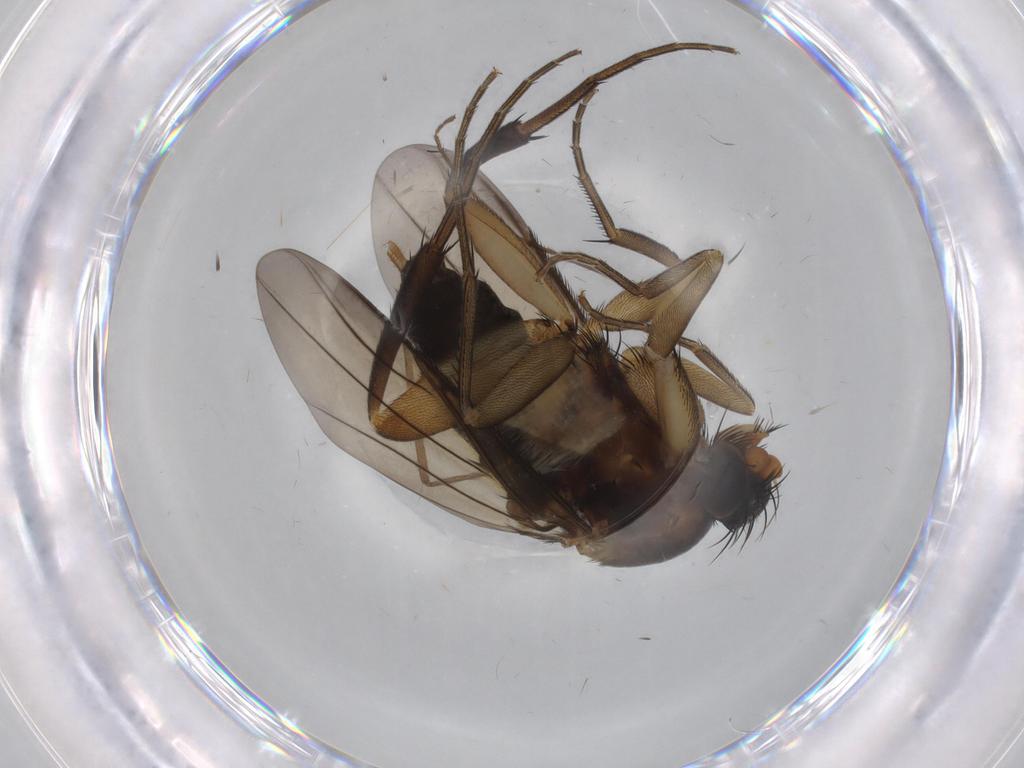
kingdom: Animalia
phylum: Arthropoda
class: Insecta
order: Diptera
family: Phoridae
